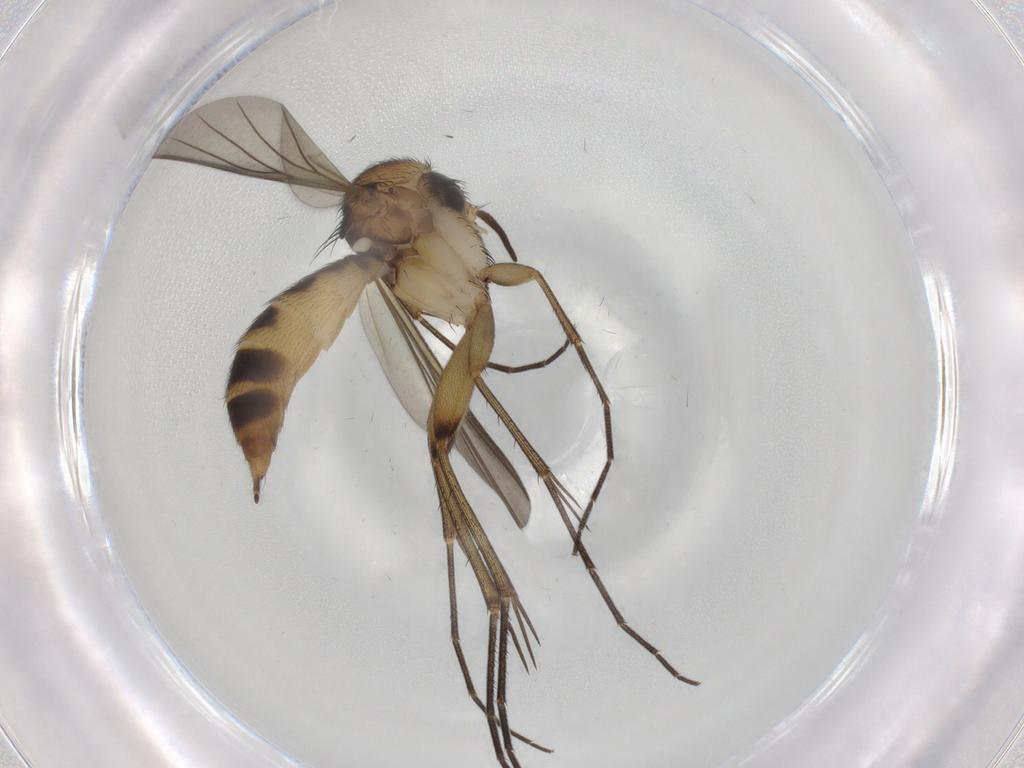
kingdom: Animalia
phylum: Arthropoda
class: Insecta
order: Diptera
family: Mycetophilidae
